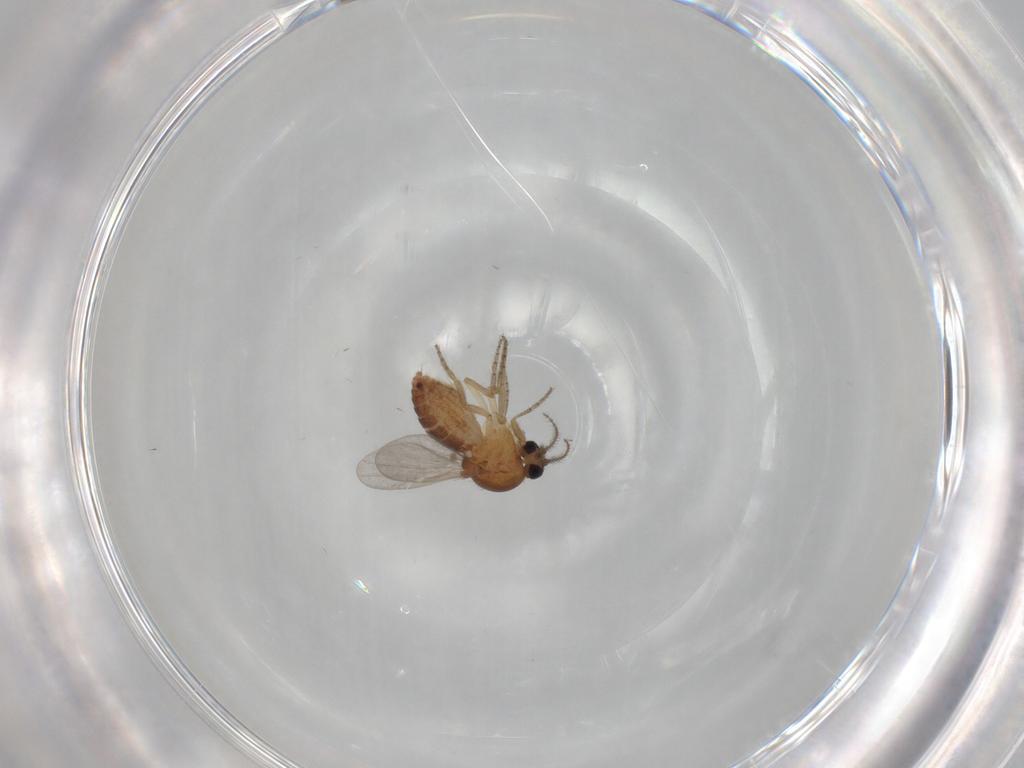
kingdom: Animalia
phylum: Arthropoda
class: Insecta
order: Diptera
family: Ceratopogonidae
